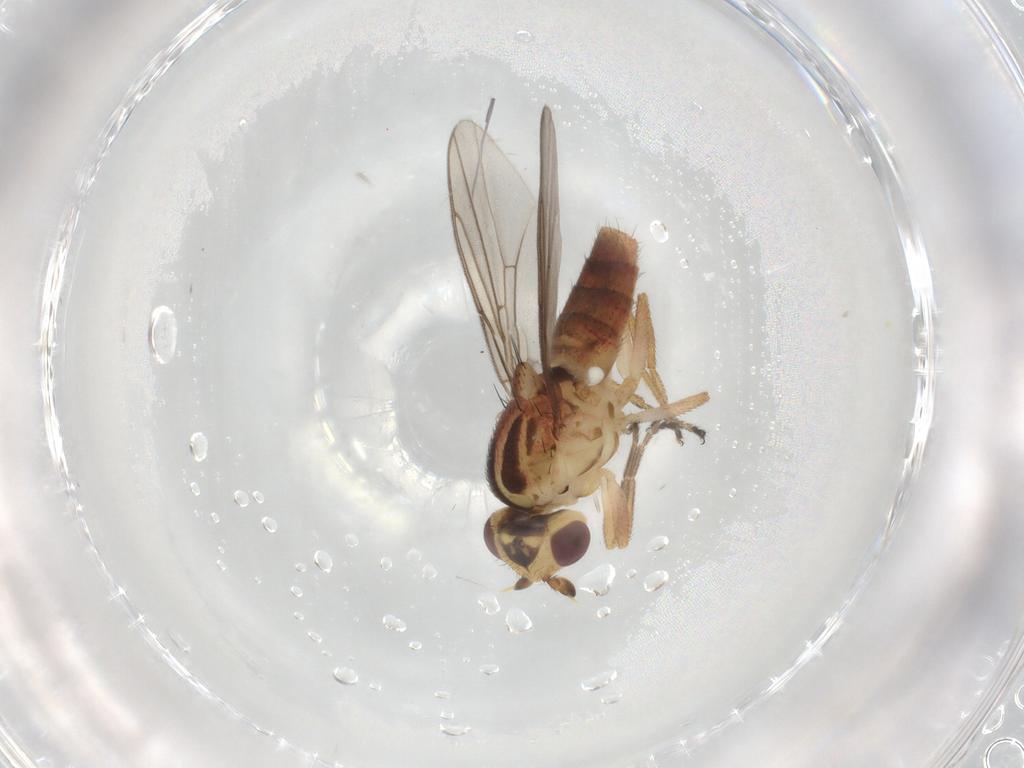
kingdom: Animalia
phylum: Arthropoda
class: Insecta
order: Diptera
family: Chloropidae
